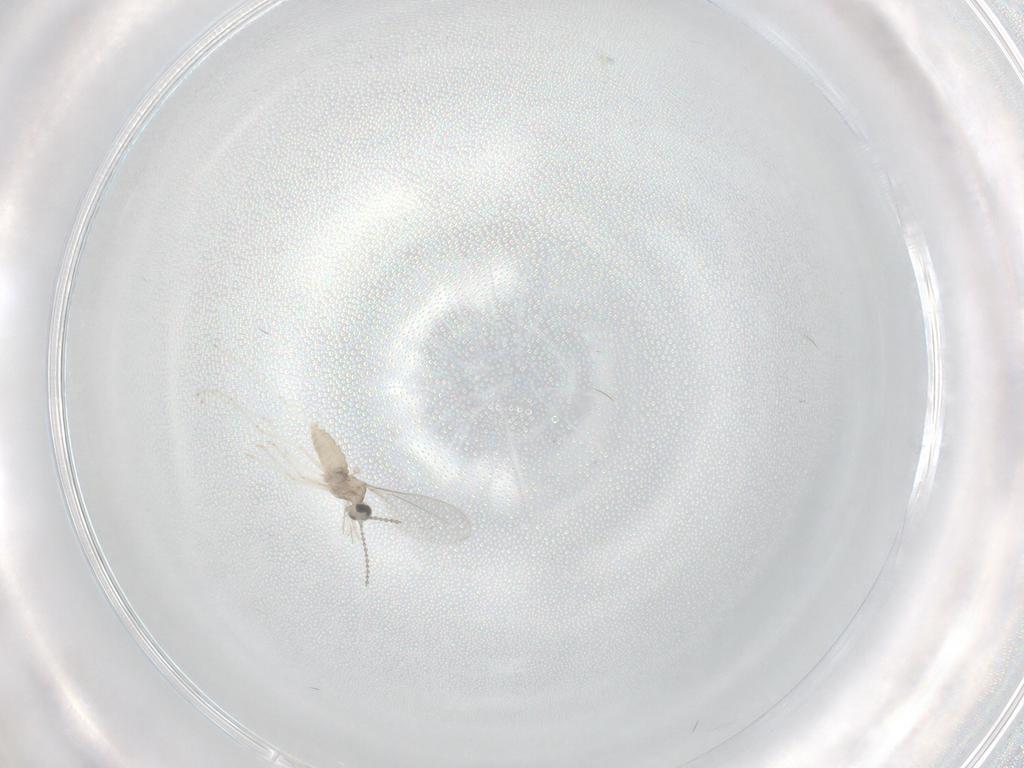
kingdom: Animalia
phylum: Arthropoda
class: Insecta
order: Diptera
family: Cecidomyiidae
